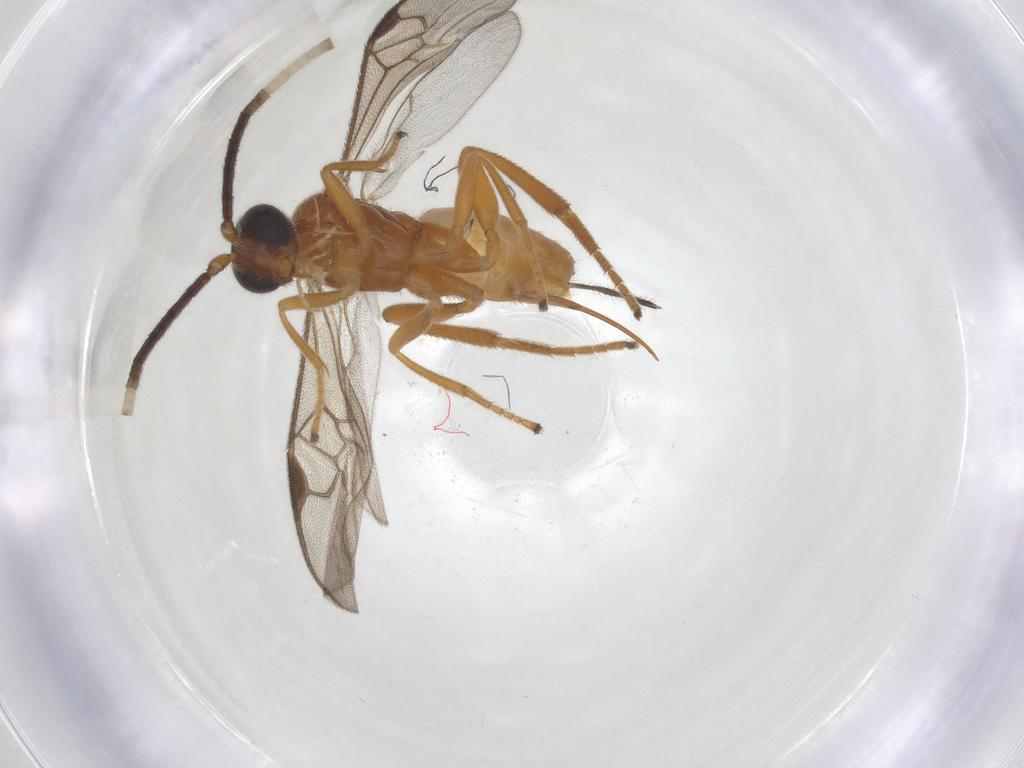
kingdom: Animalia
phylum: Arthropoda
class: Insecta
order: Hymenoptera
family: Braconidae
